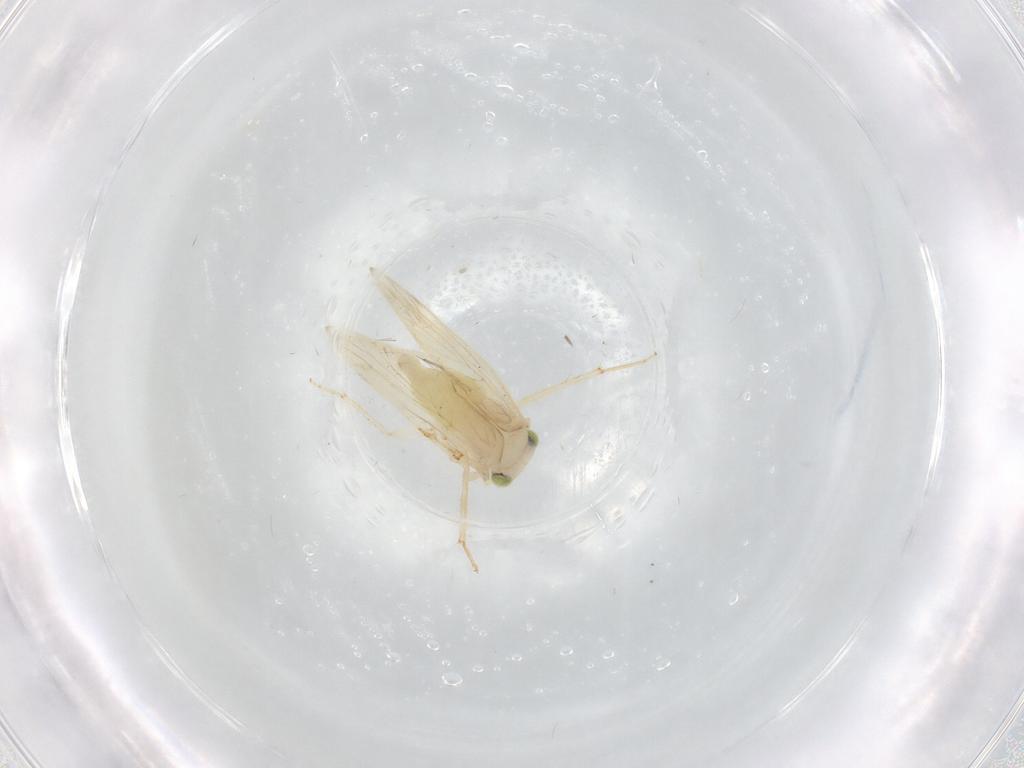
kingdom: Animalia
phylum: Arthropoda
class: Insecta
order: Psocodea
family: Lepidopsocidae
